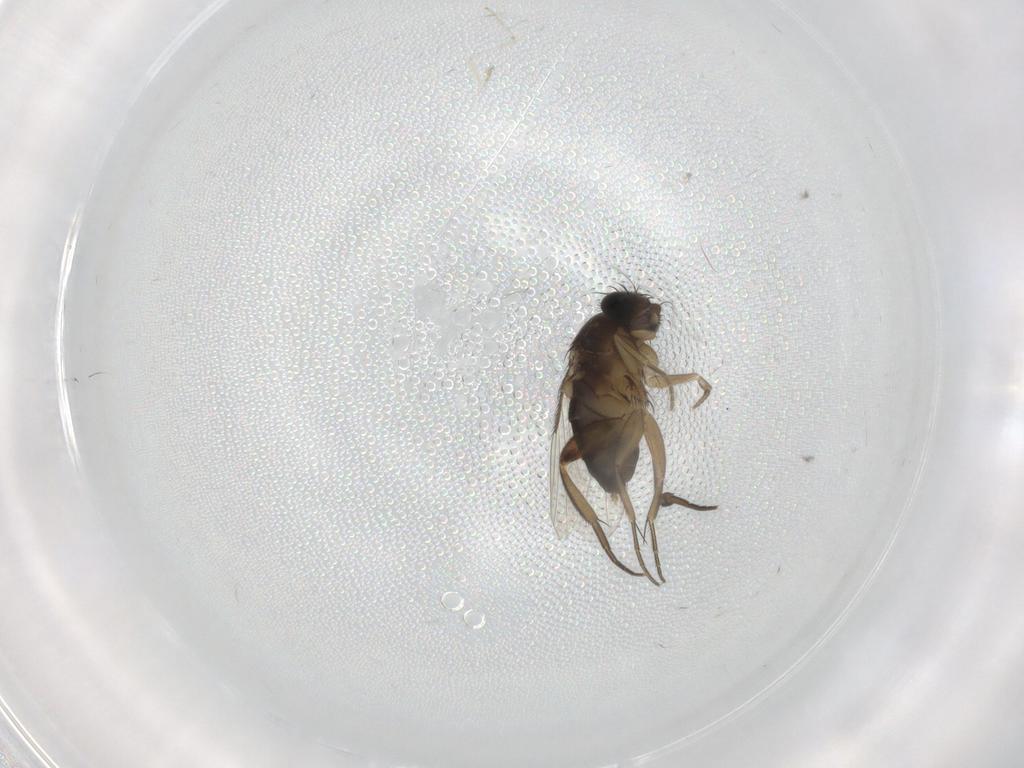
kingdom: Animalia
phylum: Arthropoda
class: Insecta
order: Diptera
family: Phoridae
